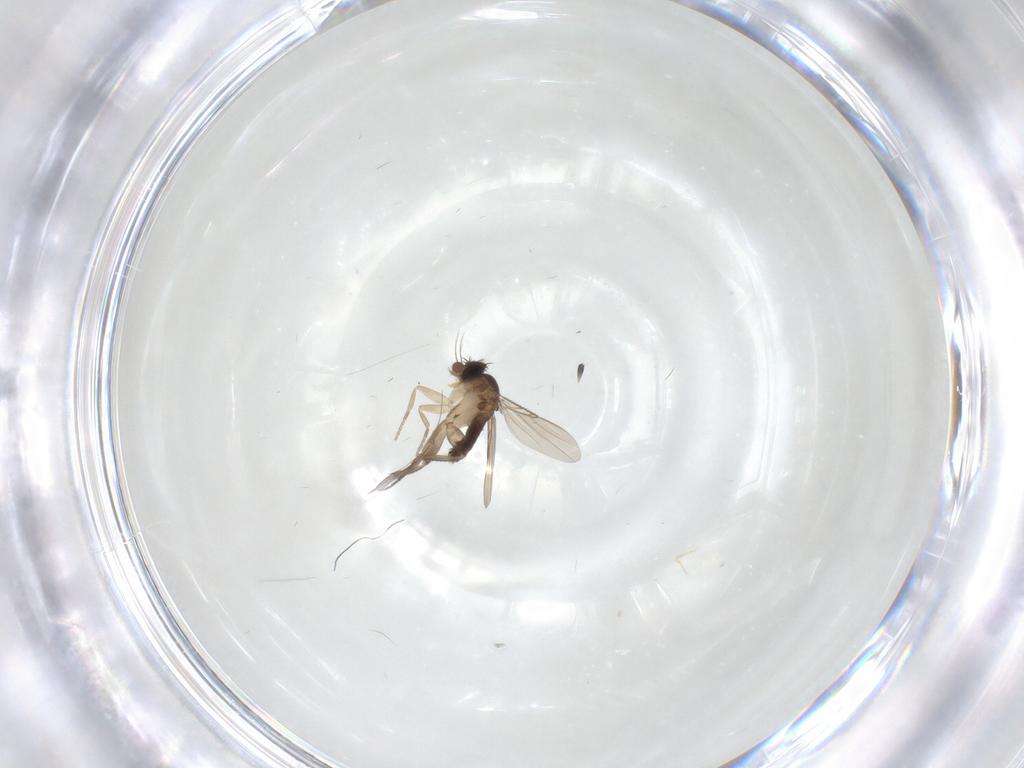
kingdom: Animalia
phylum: Arthropoda
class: Insecta
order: Diptera
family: Phoridae
